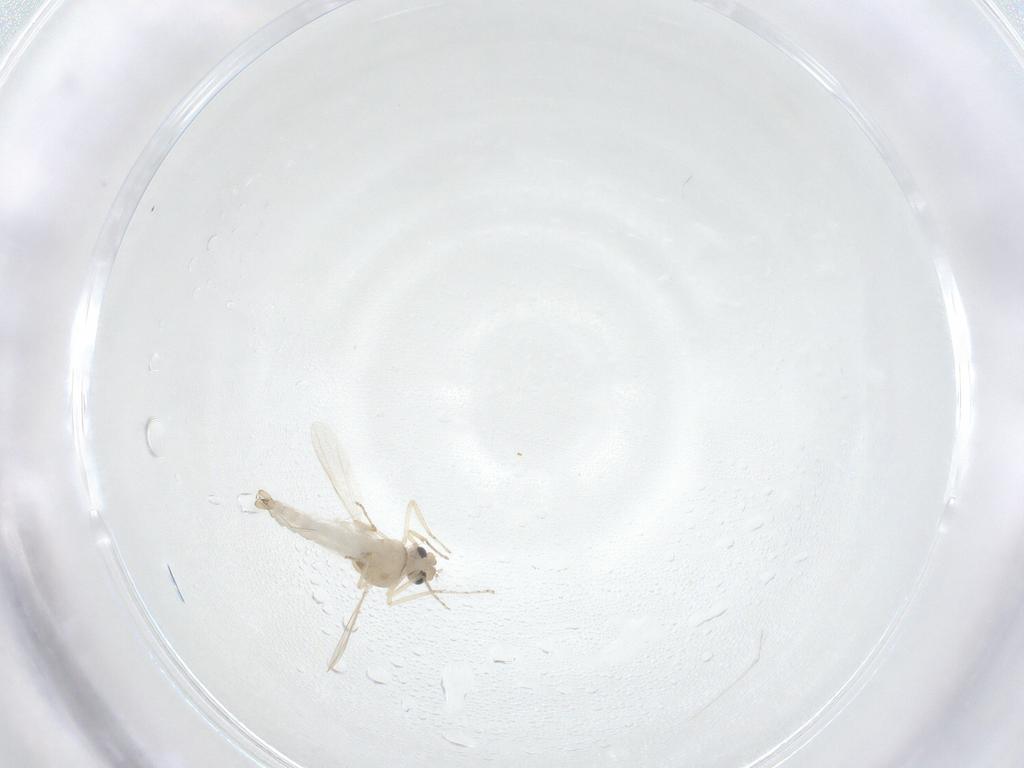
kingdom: Animalia
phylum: Arthropoda
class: Insecta
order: Diptera
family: Ceratopogonidae
